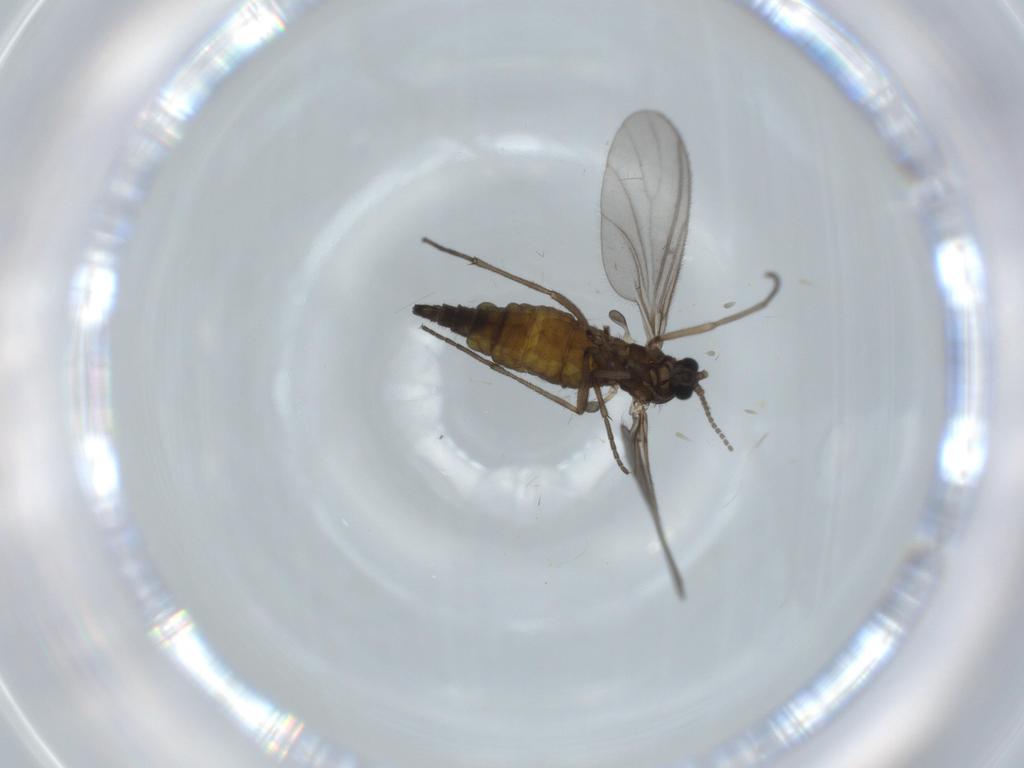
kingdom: Animalia
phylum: Arthropoda
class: Insecta
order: Diptera
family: Sciaridae
